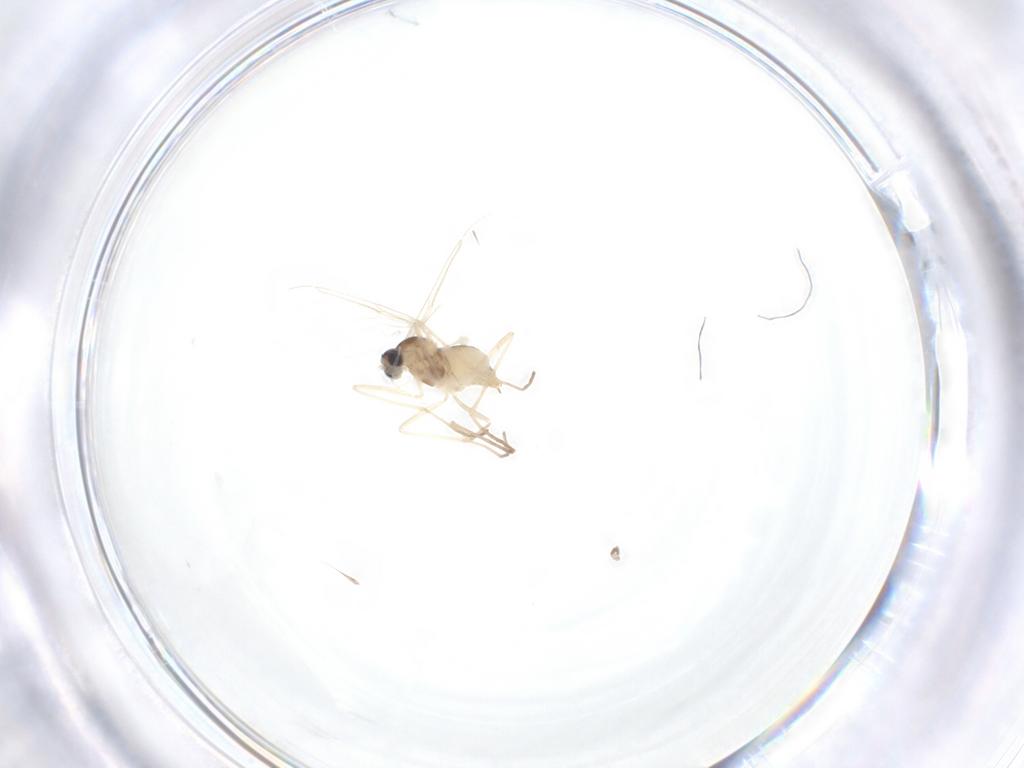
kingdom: Animalia
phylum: Arthropoda
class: Insecta
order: Diptera
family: Cecidomyiidae
